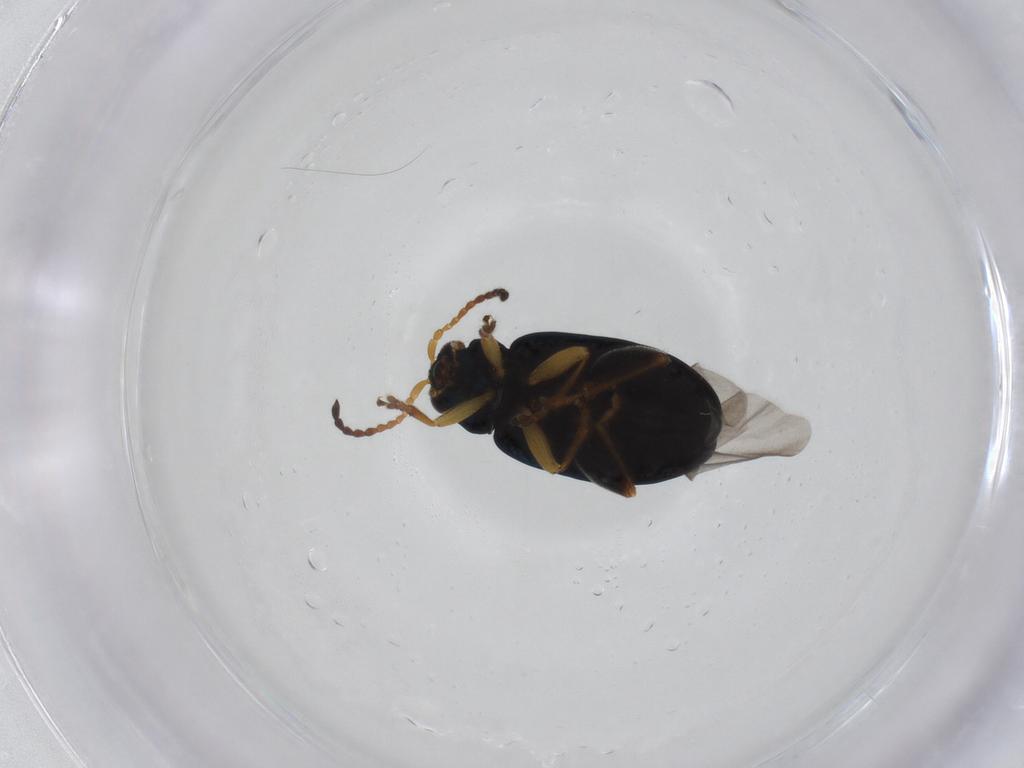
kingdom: Animalia
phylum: Arthropoda
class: Insecta
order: Coleoptera
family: Chrysomelidae
